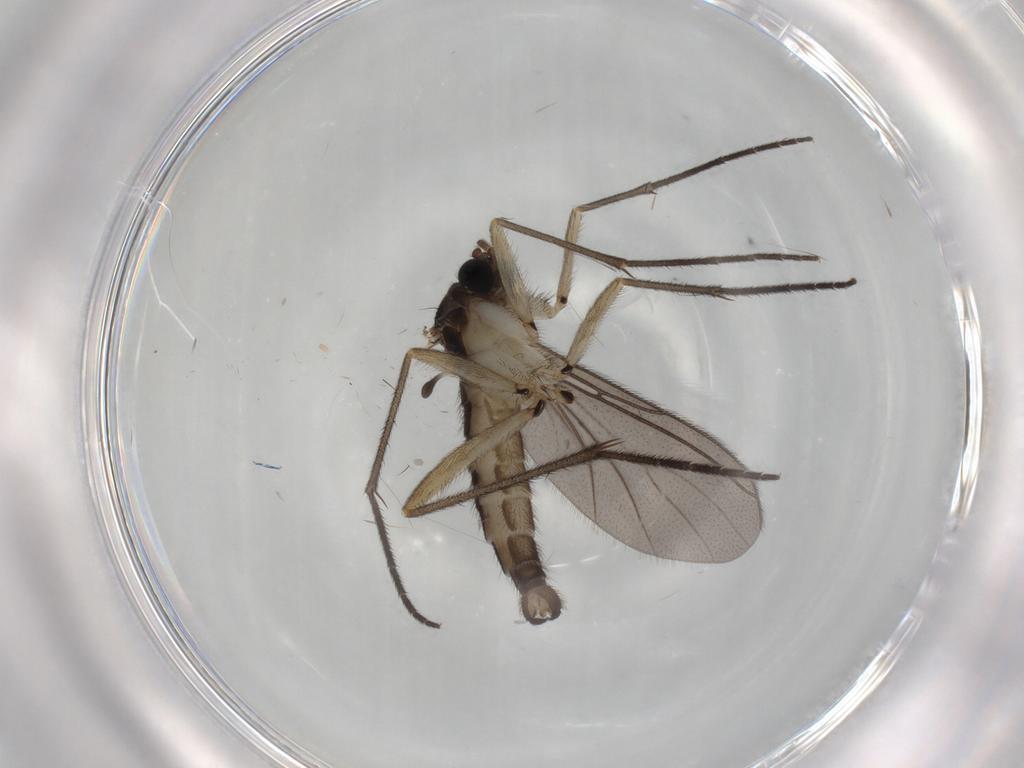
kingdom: Animalia
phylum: Arthropoda
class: Insecta
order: Diptera
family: Sciaridae
